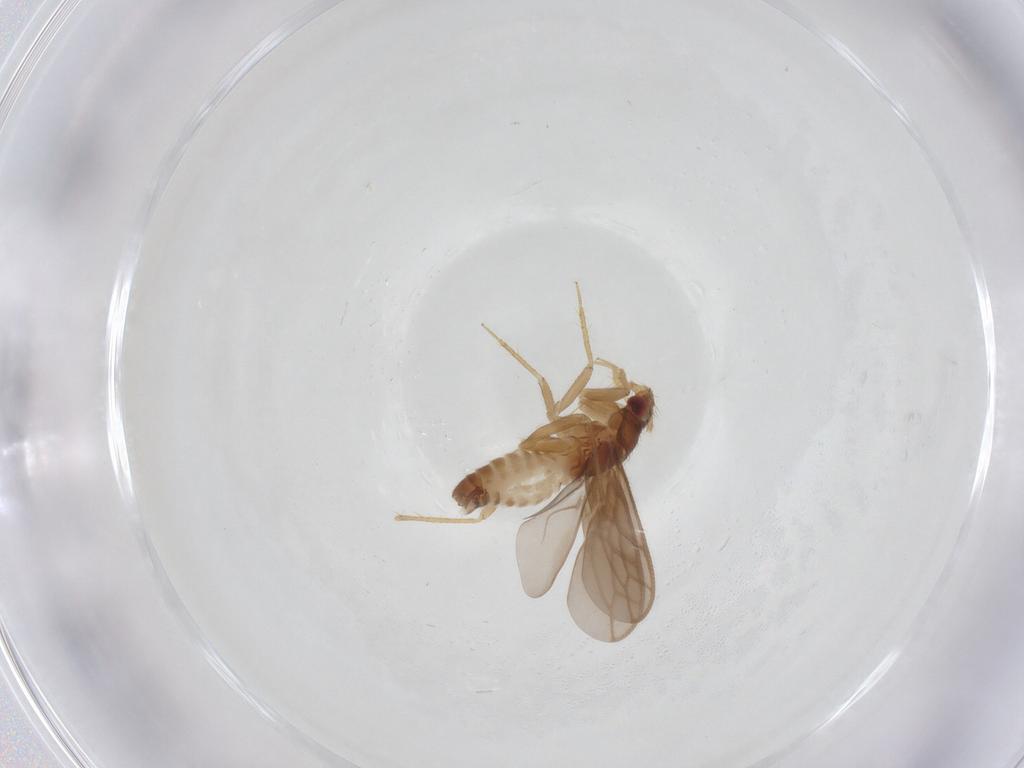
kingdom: Animalia
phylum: Arthropoda
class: Insecta
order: Hemiptera
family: Ceratocombidae
